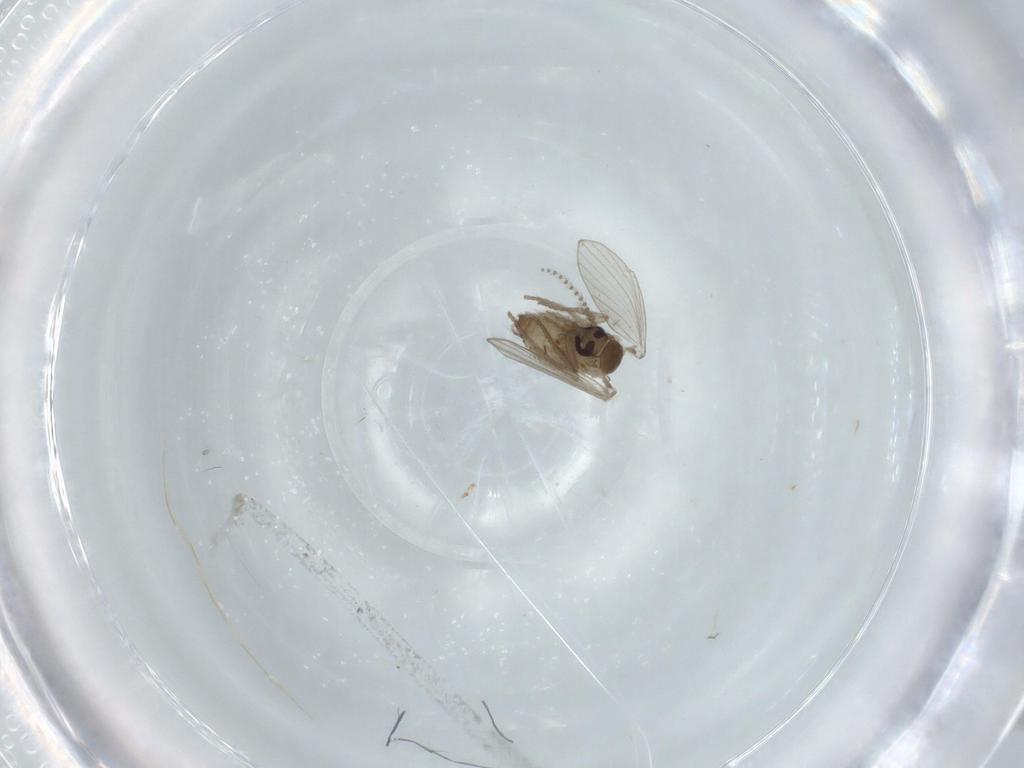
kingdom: Animalia
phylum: Arthropoda
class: Insecta
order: Diptera
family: Psychodidae
